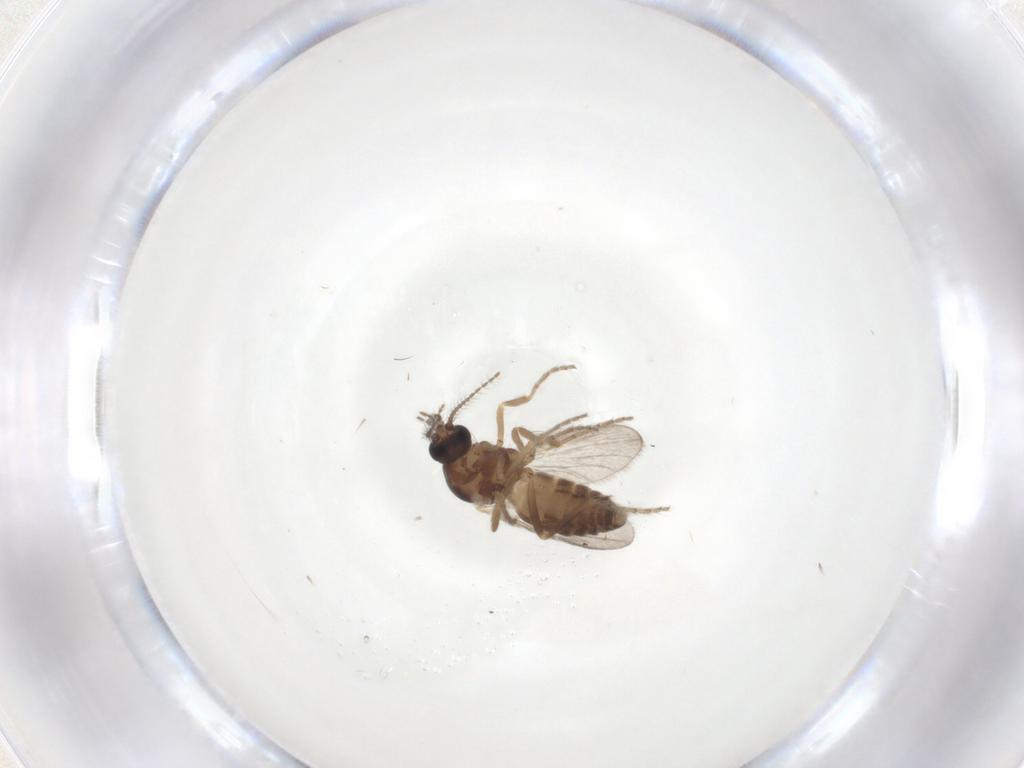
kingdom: Animalia
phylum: Arthropoda
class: Insecta
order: Diptera
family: Ceratopogonidae
